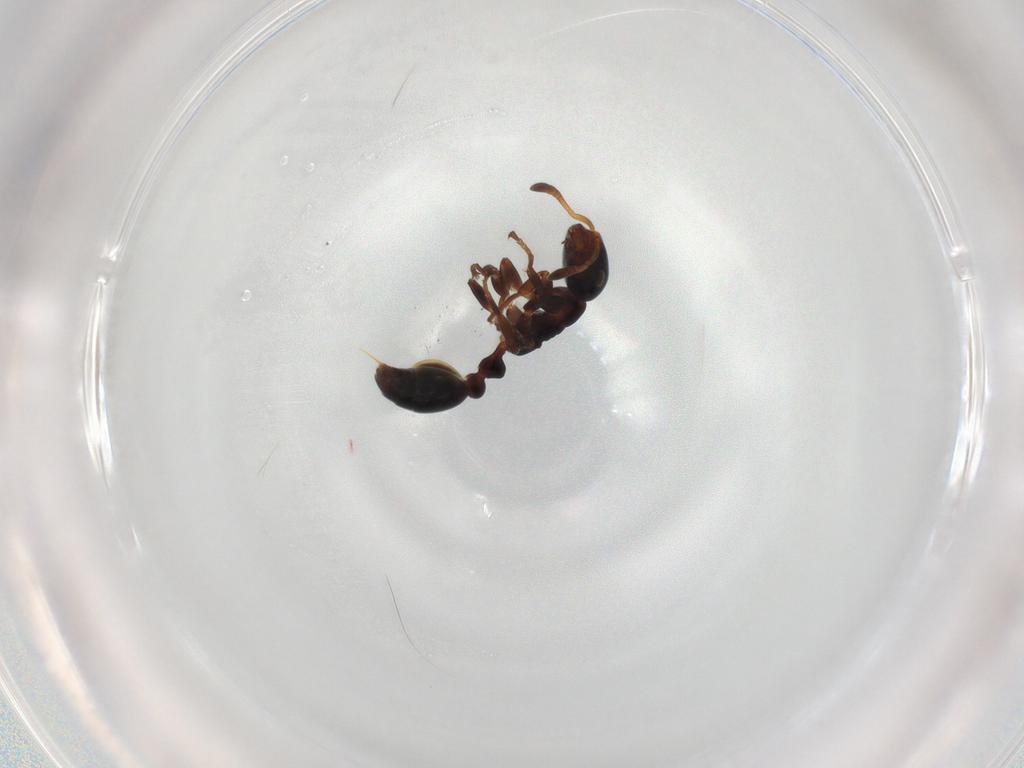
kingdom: Animalia
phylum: Arthropoda
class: Insecta
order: Hymenoptera
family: Formicidae
